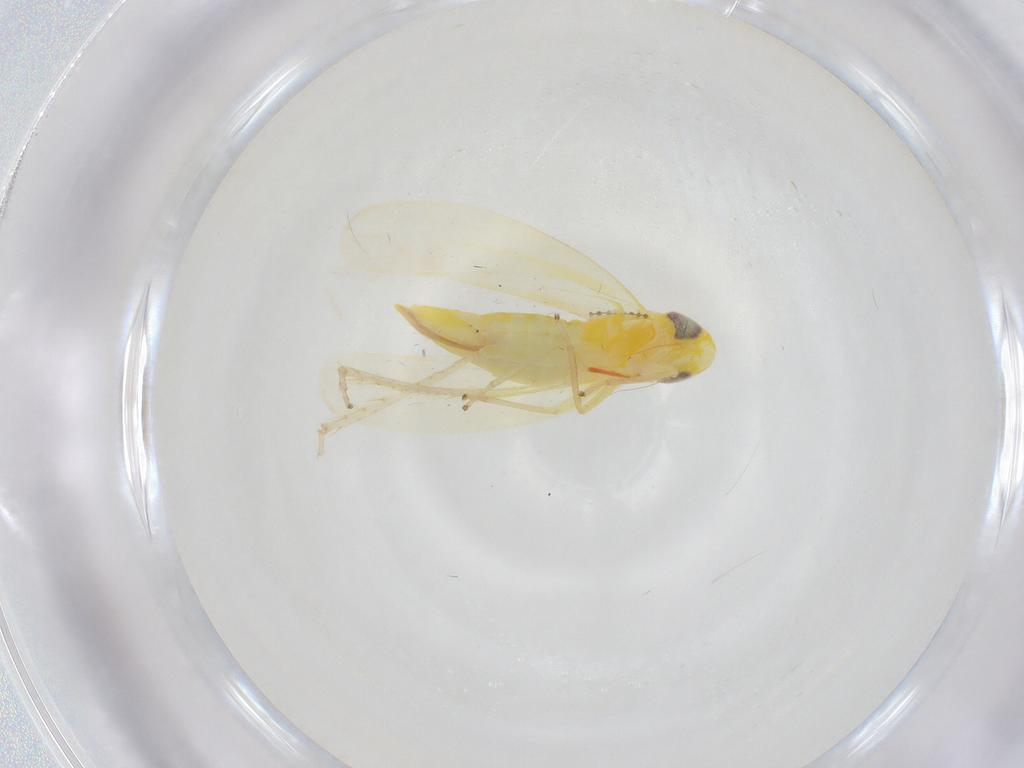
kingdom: Animalia
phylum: Arthropoda
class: Insecta
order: Hemiptera
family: Cicadellidae
